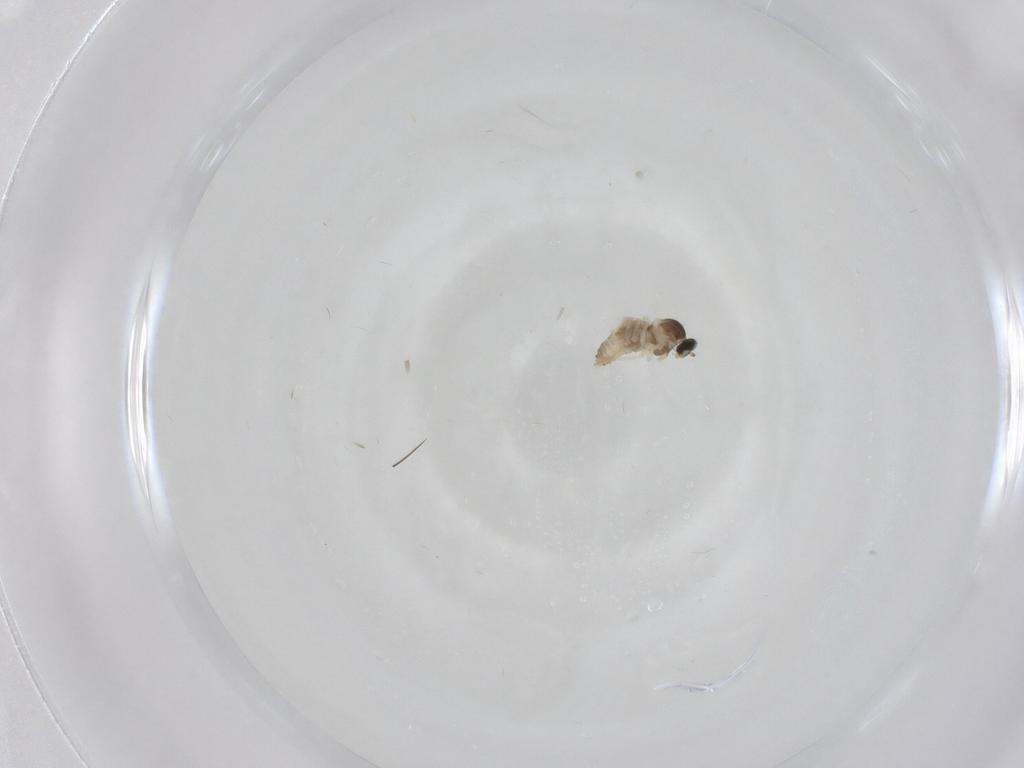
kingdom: Animalia
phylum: Arthropoda
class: Insecta
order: Diptera
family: Cecidomyiidae
